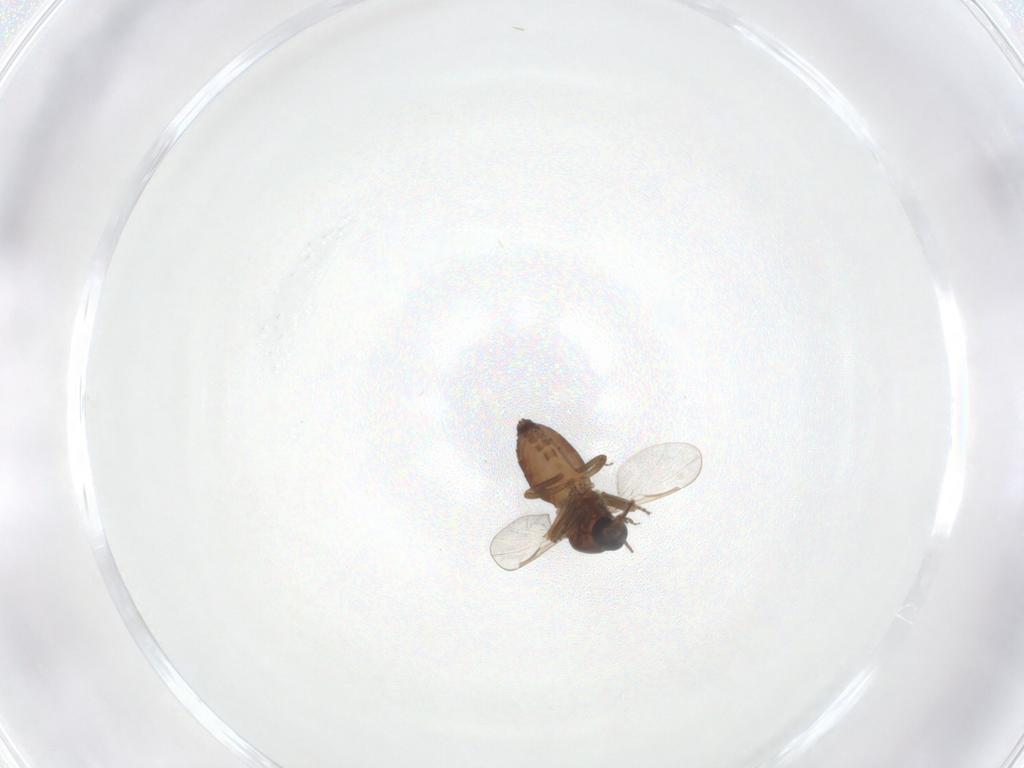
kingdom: Animalia
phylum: Arthropoda
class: Insecta
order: Diptera
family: Ceratopogonidae
